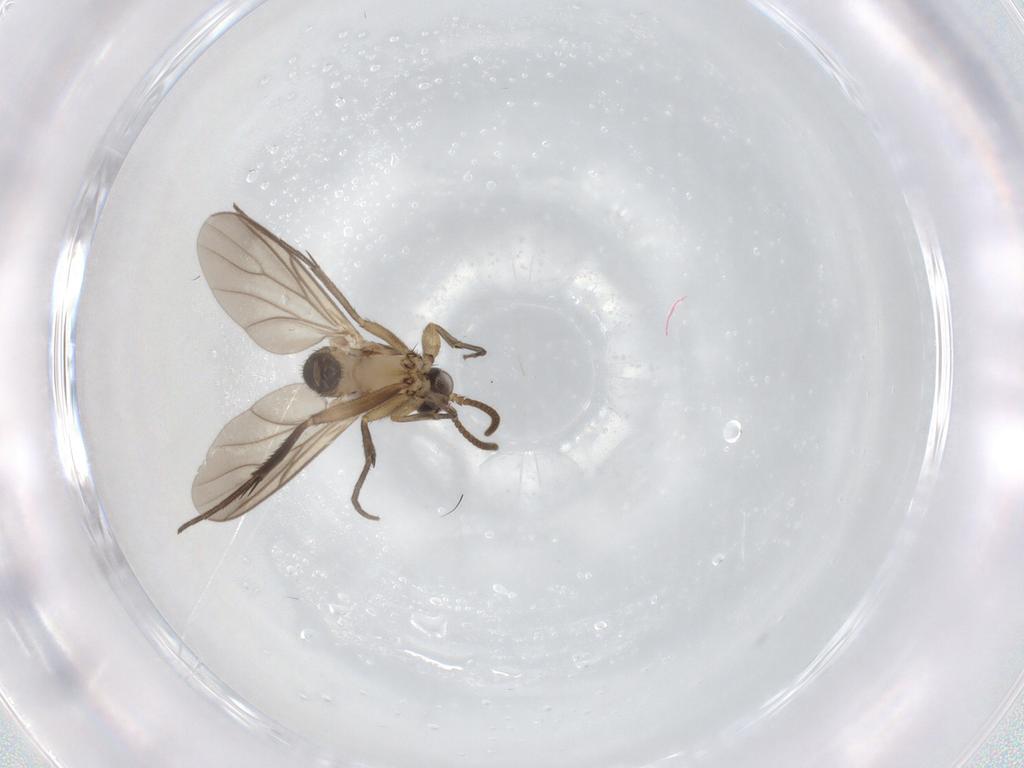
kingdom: Animalia
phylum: Arthropoda
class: Insecta
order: Diptera
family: Mycetophilidae
